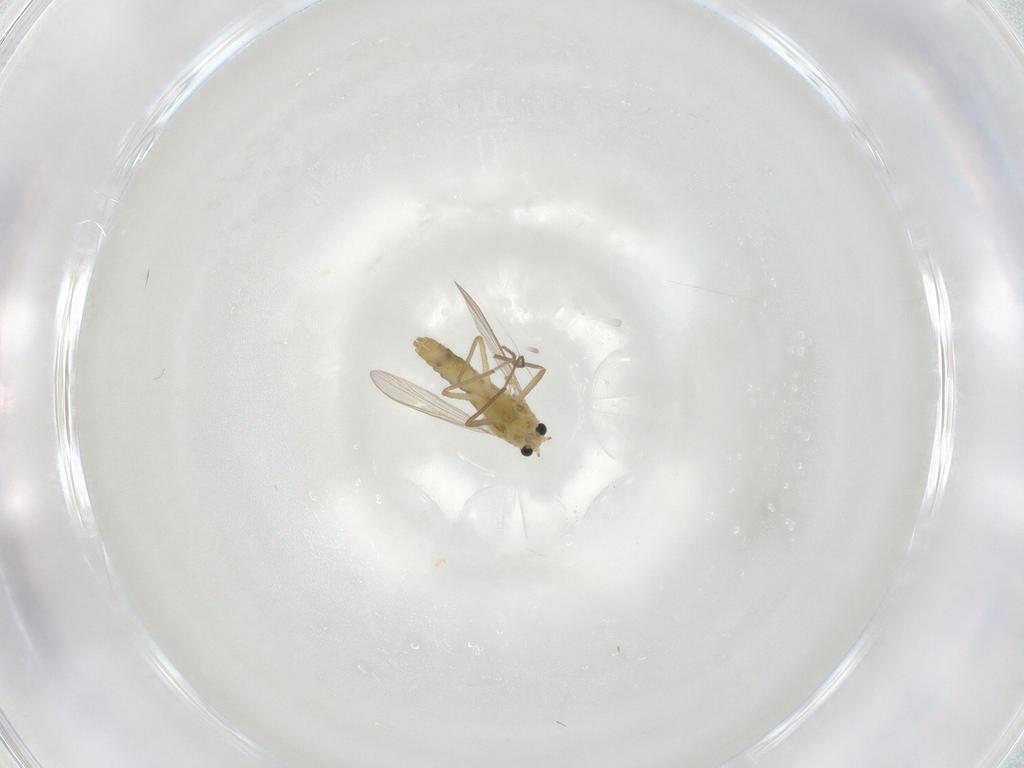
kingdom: Animalia
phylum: Arthropoda
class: Insecta
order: Diptera
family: Chironomidae
